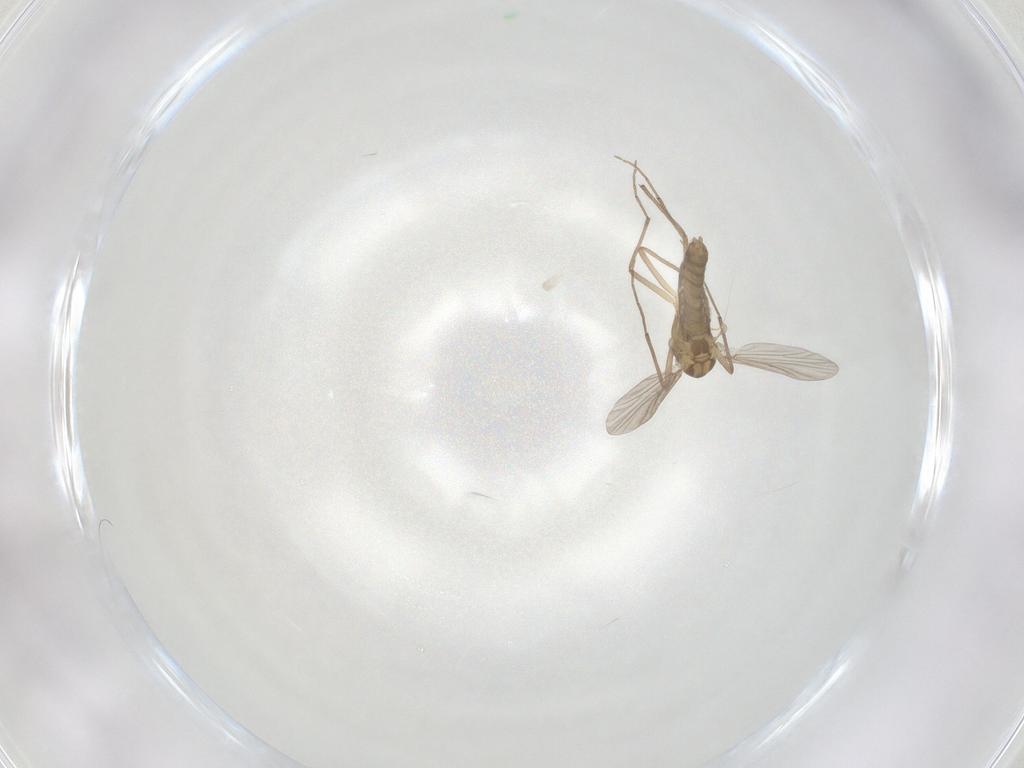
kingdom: Animalia
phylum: Arthropoda
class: Insecta
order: Diptera
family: Chironomidae
